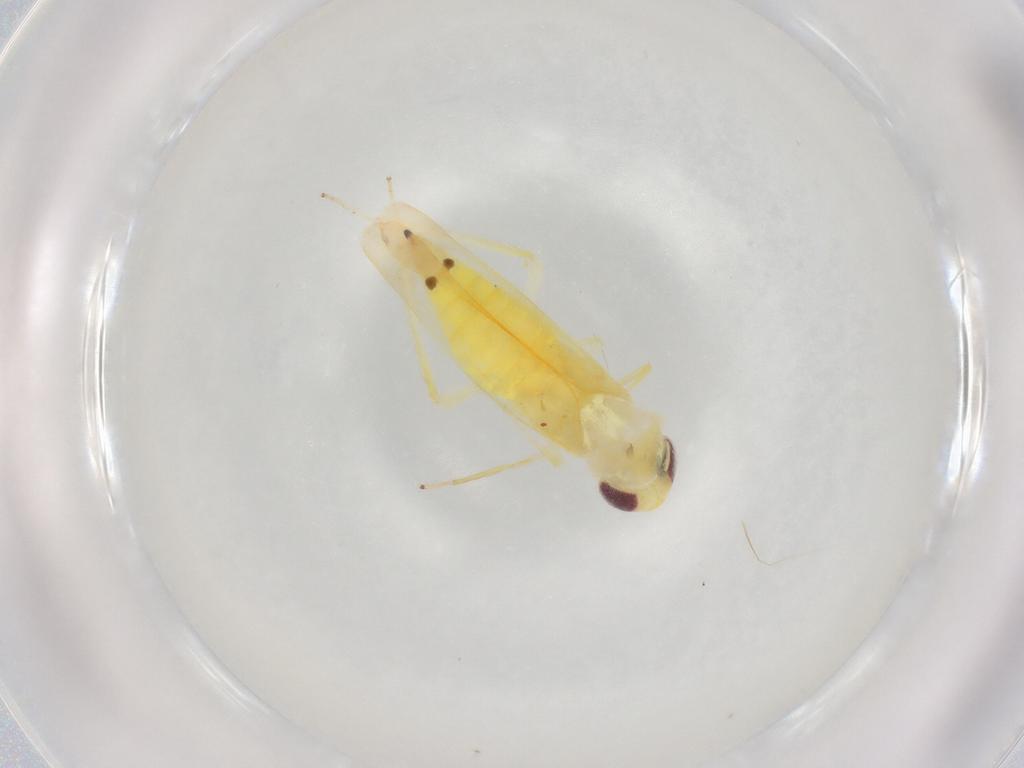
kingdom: Animalia
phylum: Arthropoda
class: Insecta
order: Hemiptera
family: Cicadellidae
